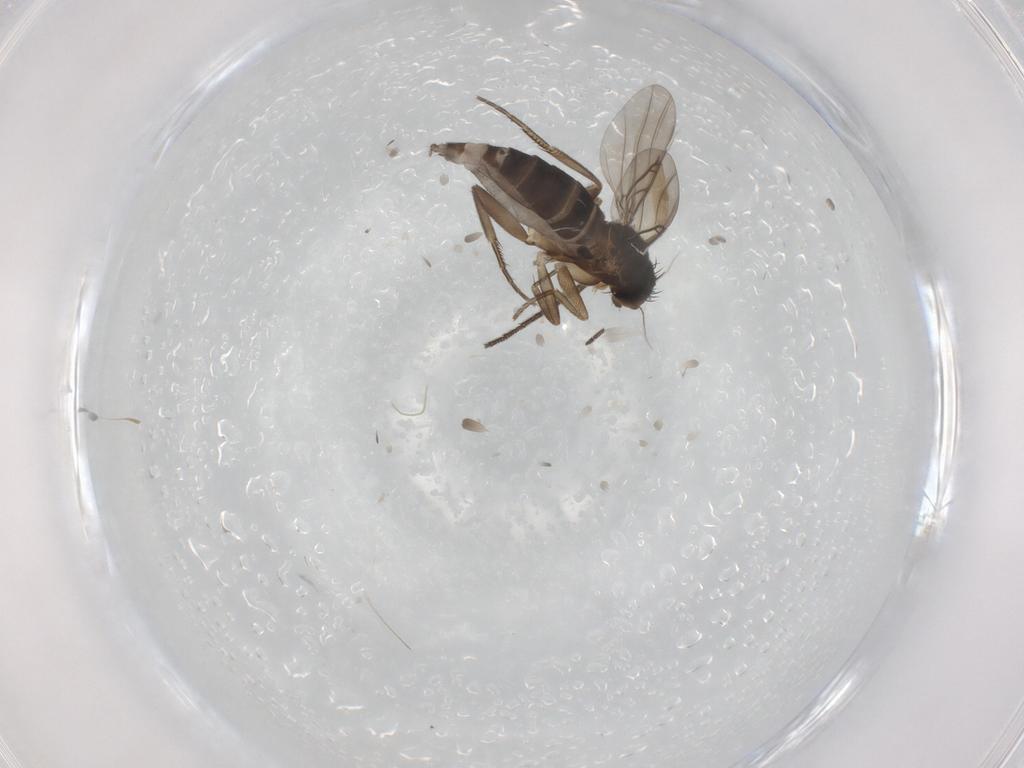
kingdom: Animalia
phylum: Arthropoda
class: Insecta
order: Diptera
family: Phoridae
